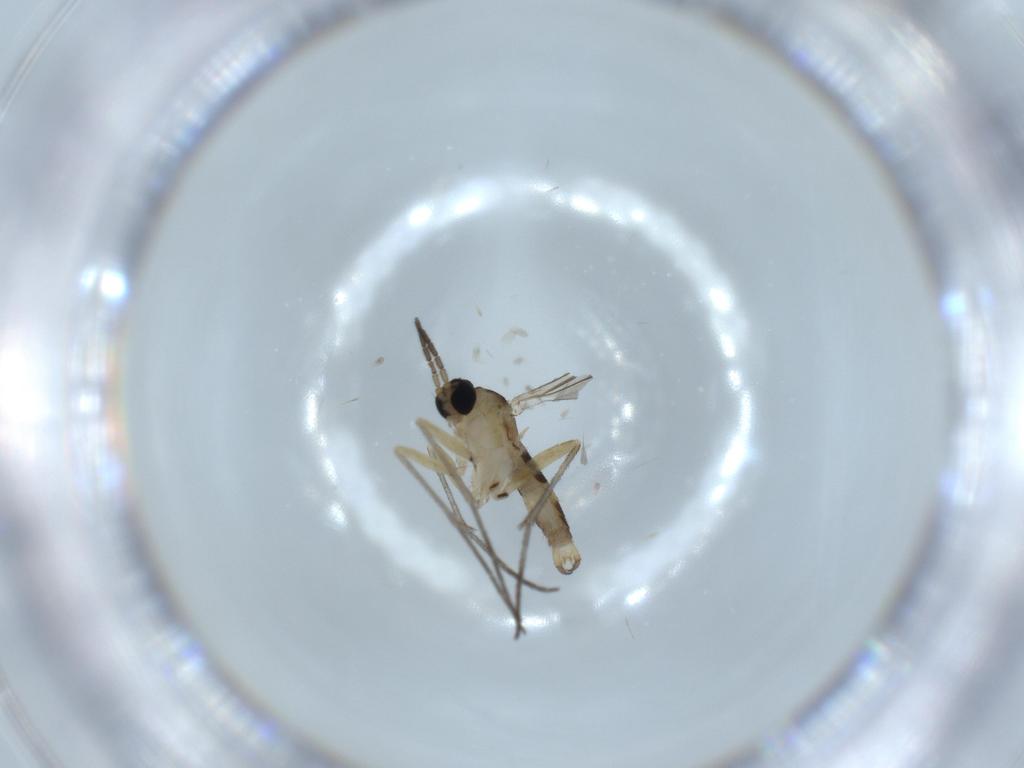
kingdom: Animalia
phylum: Arthropoda
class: Insecta
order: Diptera
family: Sciaridae
